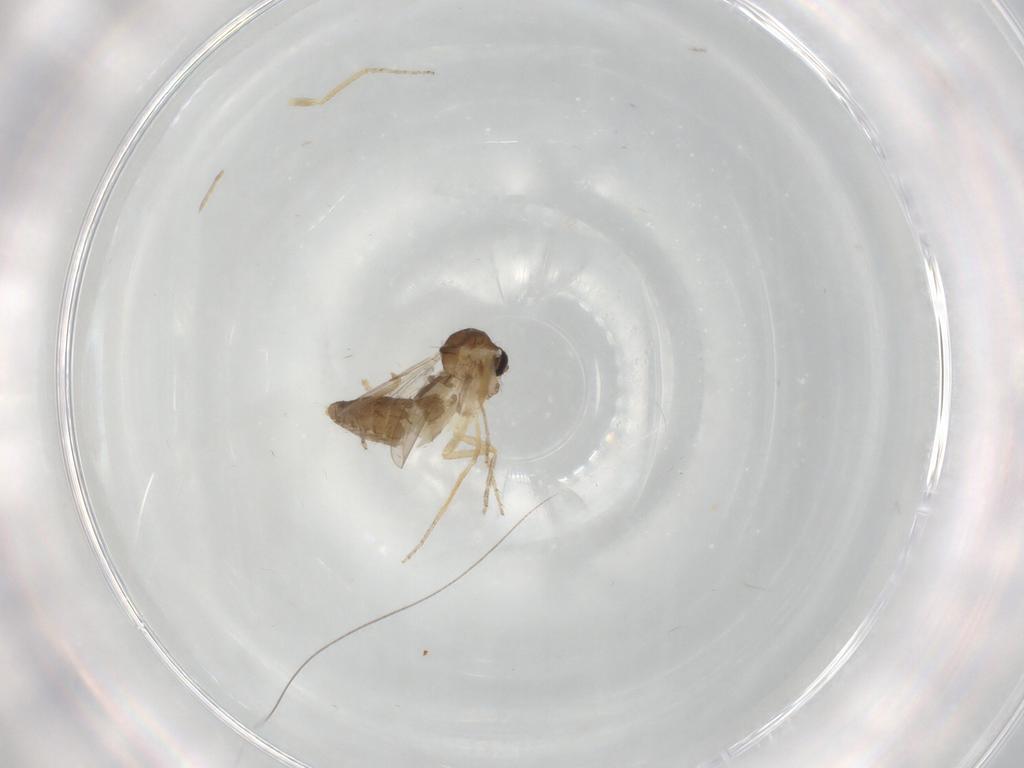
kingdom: Animalia
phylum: Arthropoda
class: Insecta
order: Diptera
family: Ceratopogonidae
